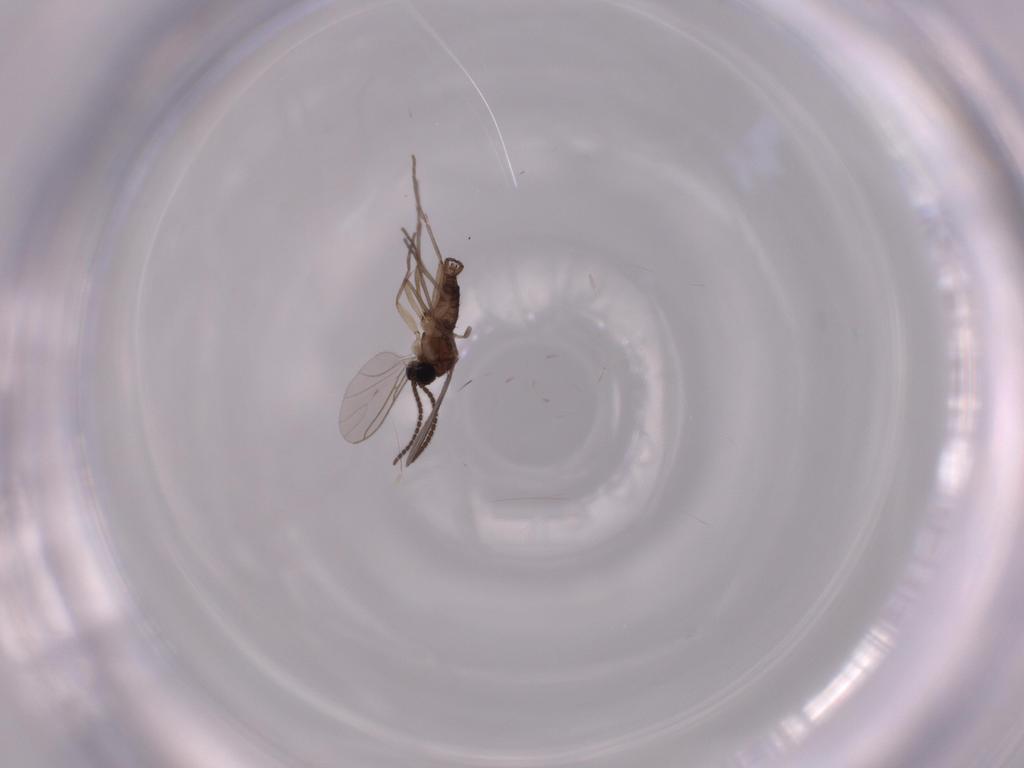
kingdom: Animalia
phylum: Arthropoda
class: Insecta
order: Diptera
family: Sciaridae
